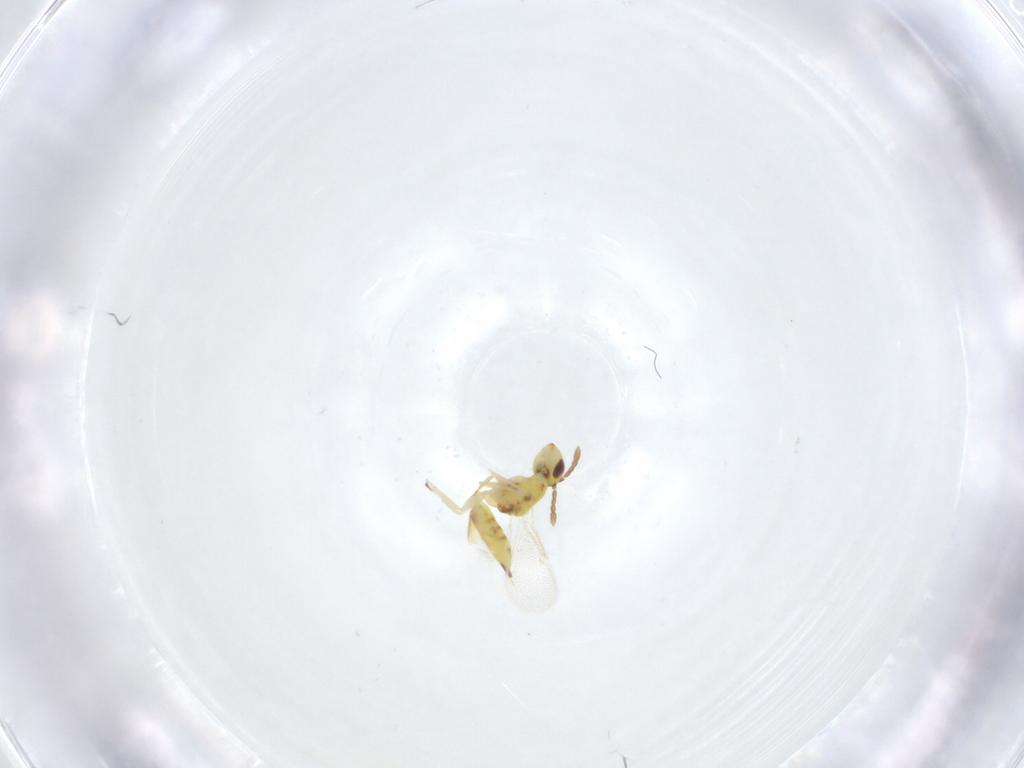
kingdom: Animalia
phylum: Arthropoda
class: Insecta
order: Hymenoptera
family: Eulophidae
